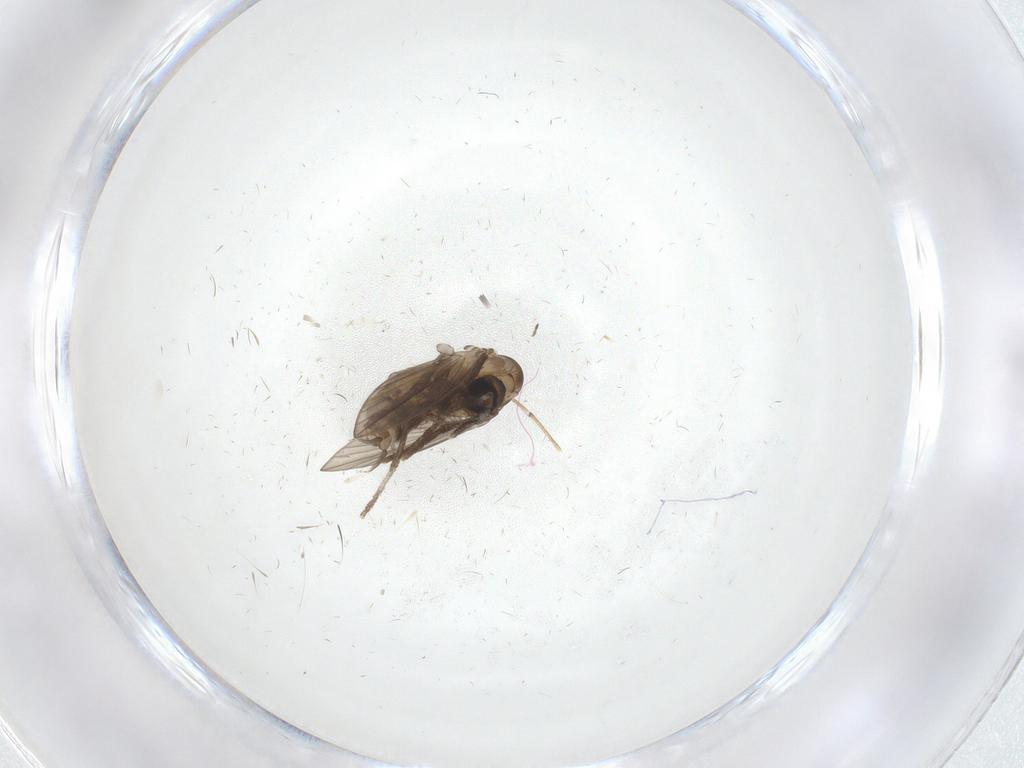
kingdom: Animalia
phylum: Arthropoda
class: Insecta
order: Diptera
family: Psychodidae
